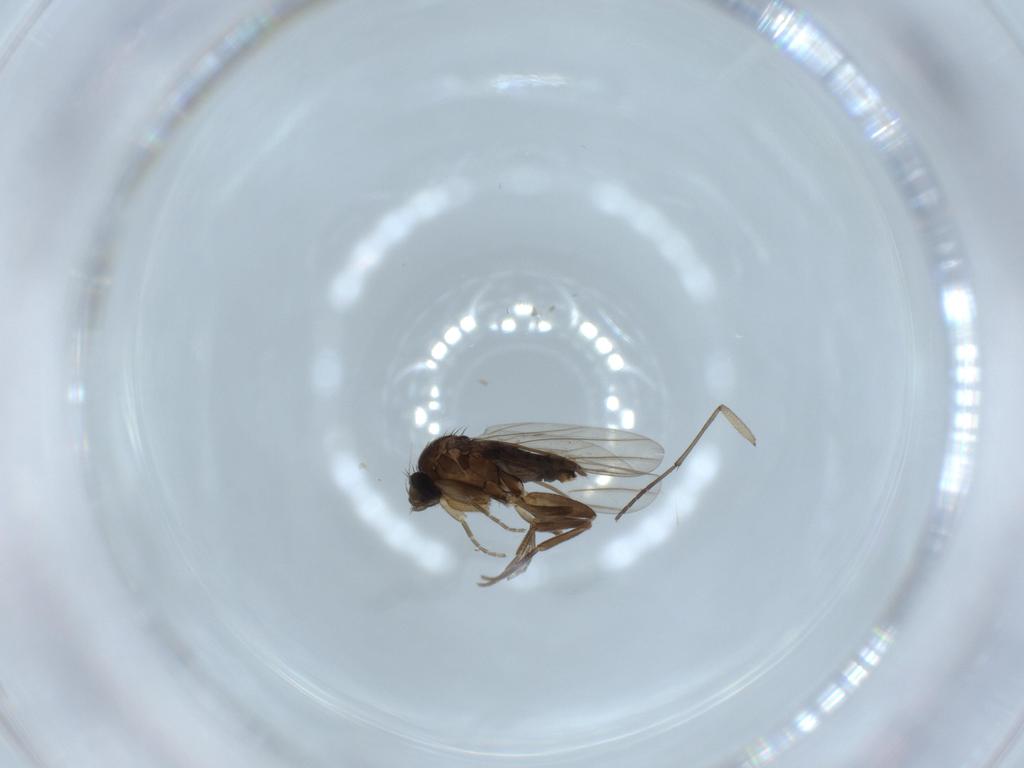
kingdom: Animalia
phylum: Arthropoda
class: Insecta
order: Diptera
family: Phoridae
